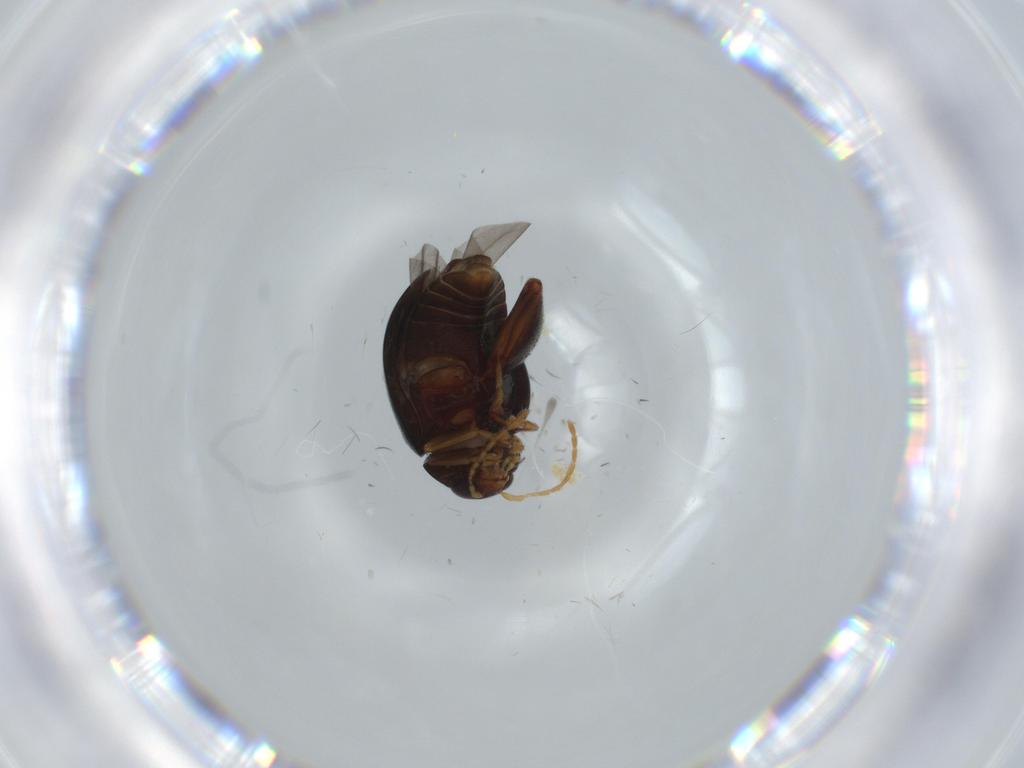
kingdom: Animalia
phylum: Arthropoda
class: Insecta
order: Coleoptera
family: Chrysomelidae
